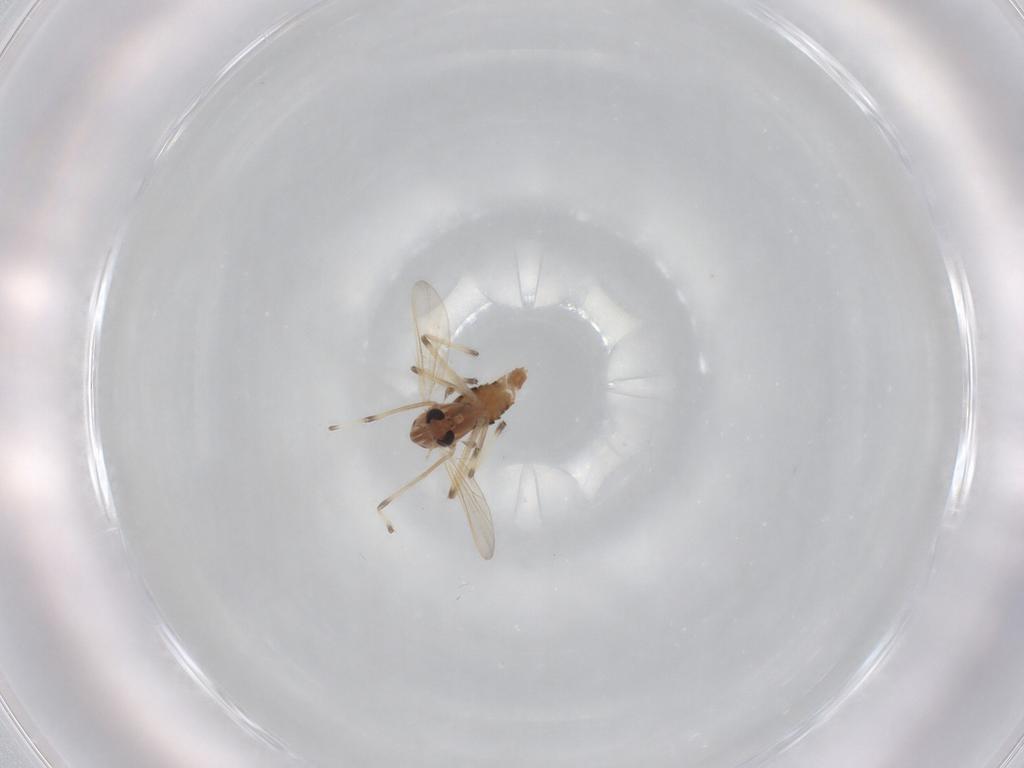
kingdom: Animalia
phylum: Arthropoda
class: Insecta
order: Diptera
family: Chironomidae
